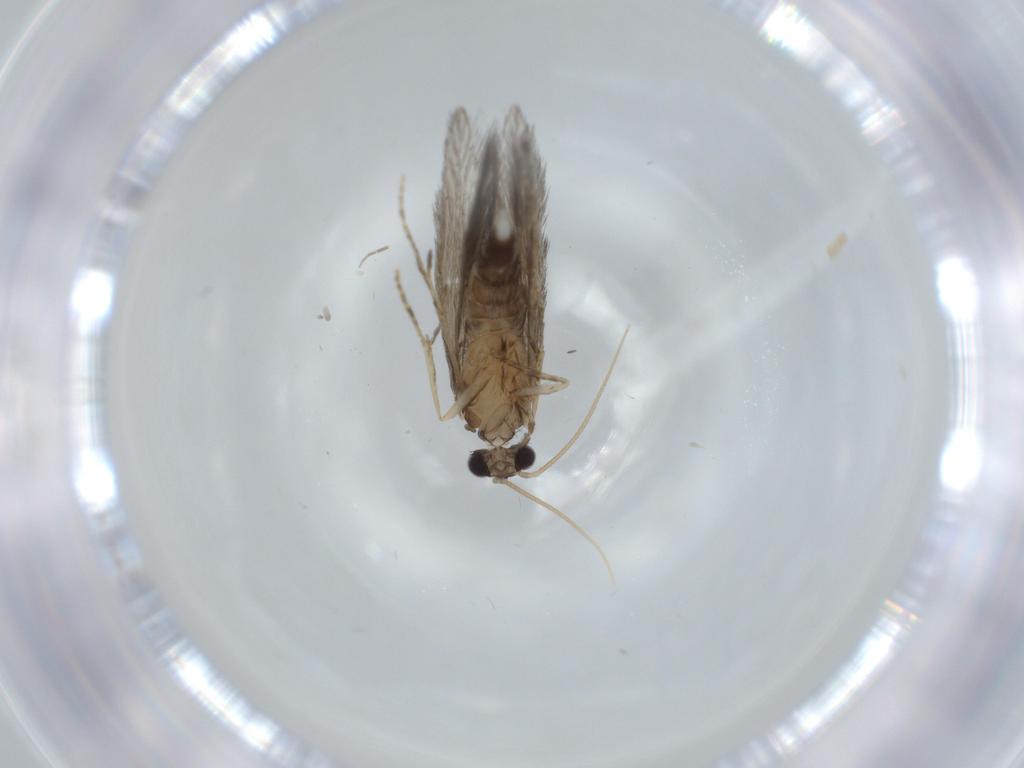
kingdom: Animalia
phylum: Arthropoda
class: Insecta
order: Trichoptera
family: Hydroptilidae
